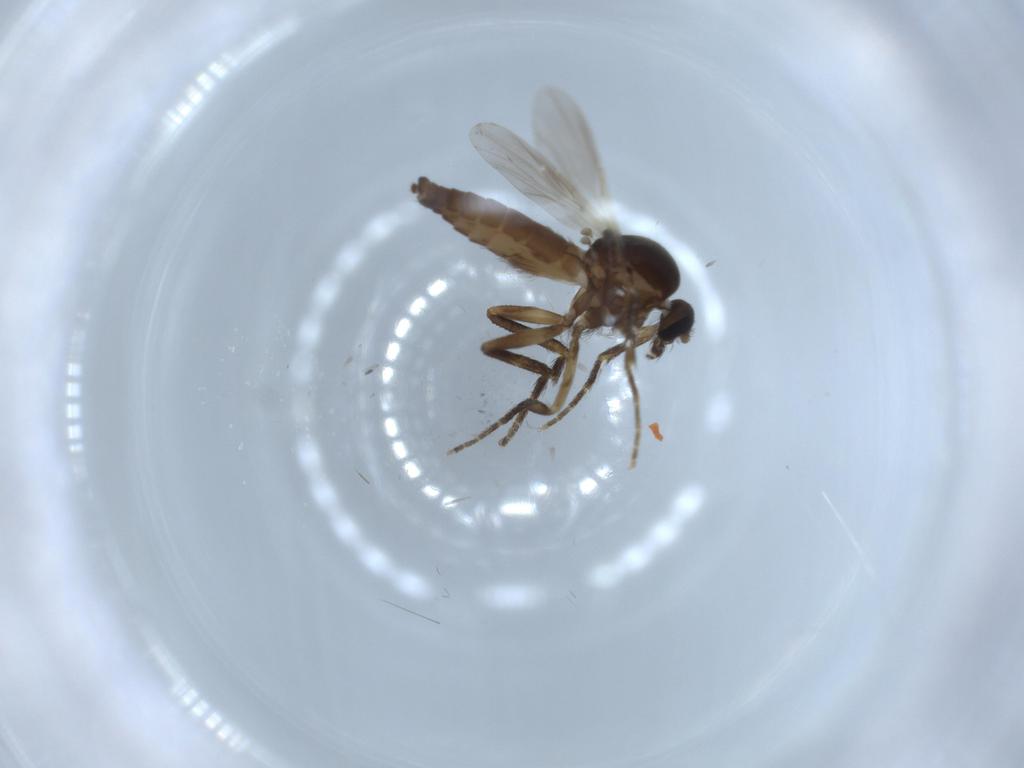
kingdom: Animalia
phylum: Arthropoda
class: Insecta
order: Diptera
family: Ceratopogonidae
